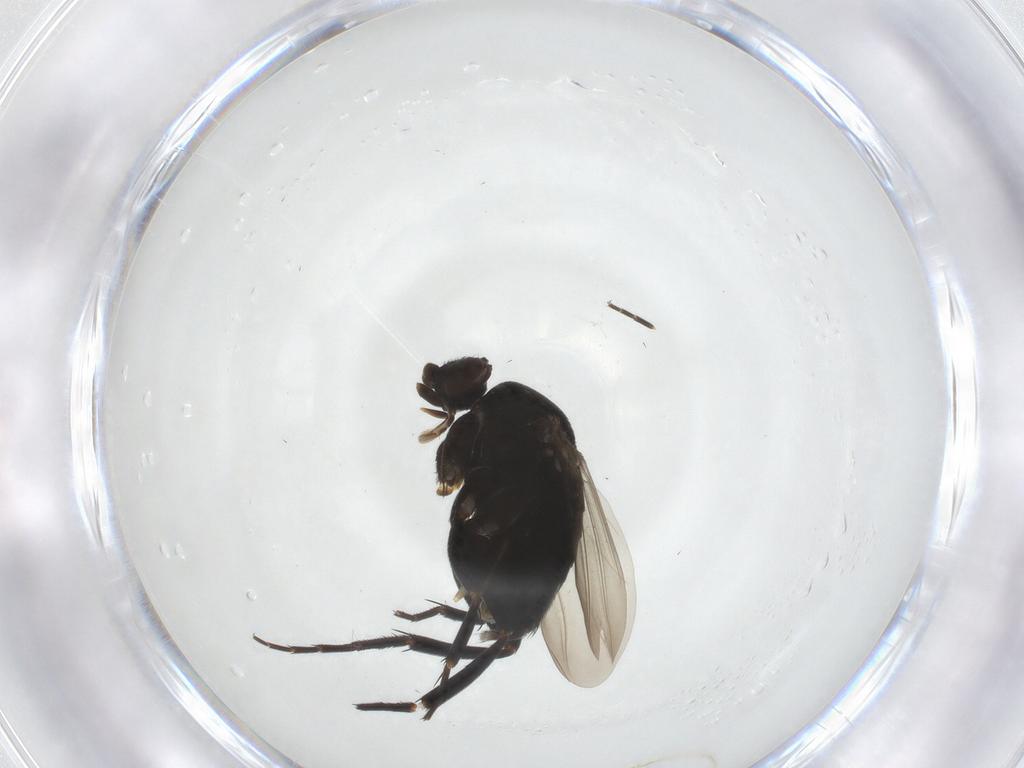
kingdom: Animalia
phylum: Arthropoda
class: Insecta
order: Diptera
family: Phoridae
